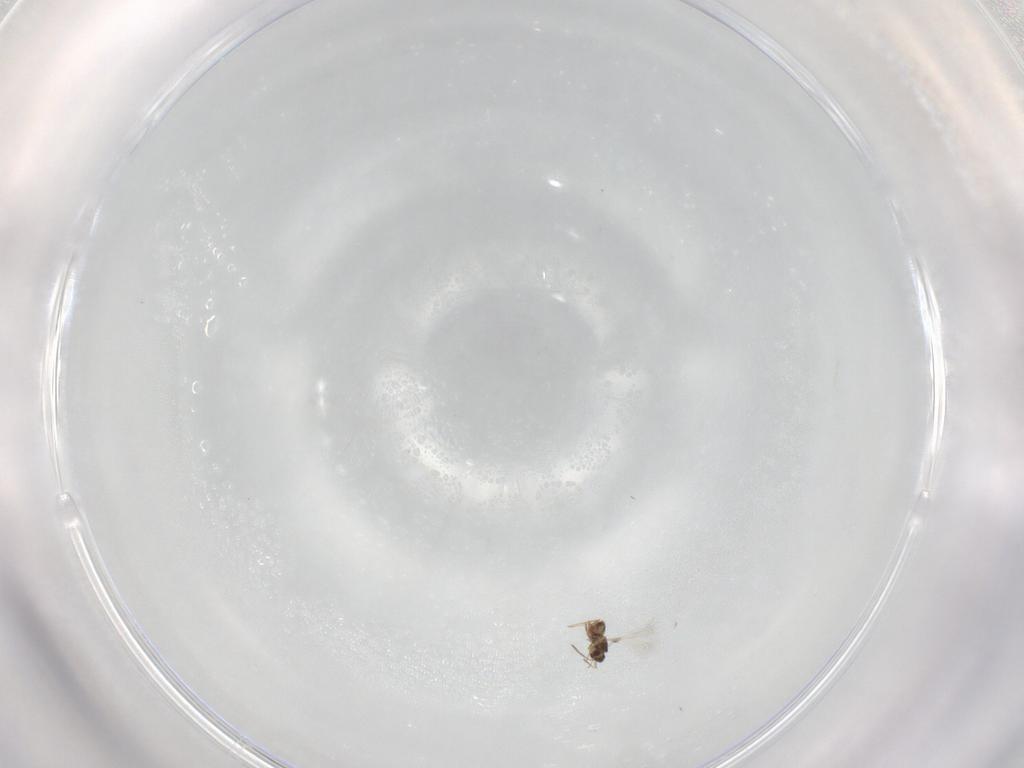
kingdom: Animalia
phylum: Arthropoda
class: Insecta
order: Hymenoptera
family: Mymaridae
